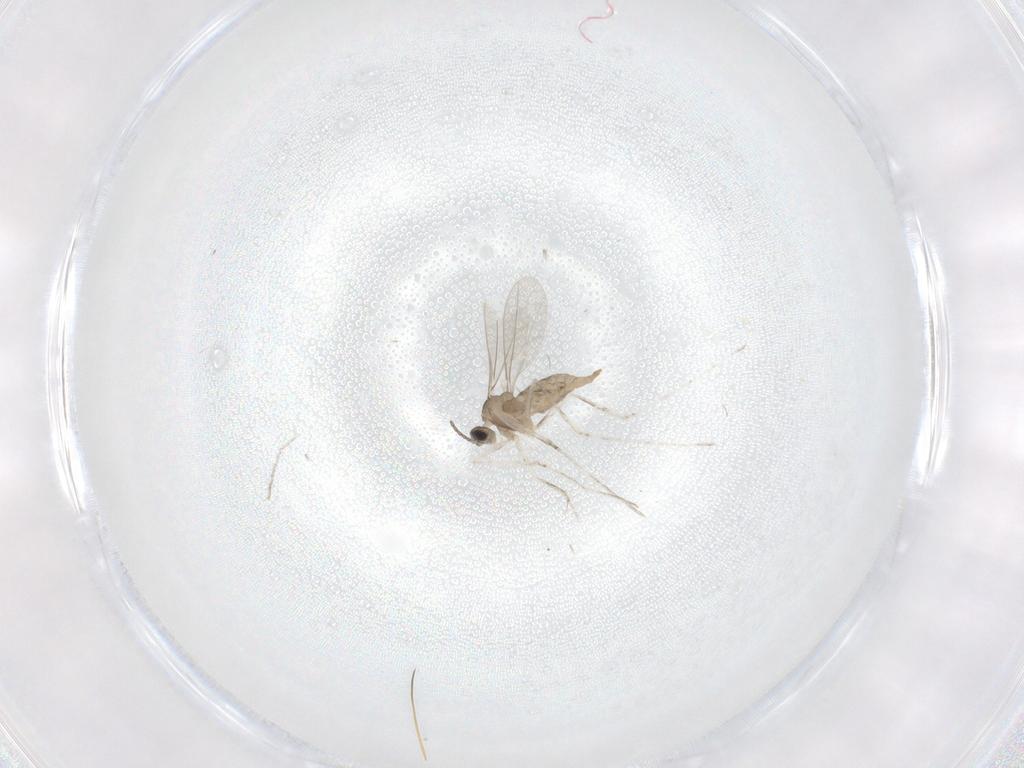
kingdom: Animalia
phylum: Arthropoda
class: Insecta
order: Diptera
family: Cecidomyiidae
